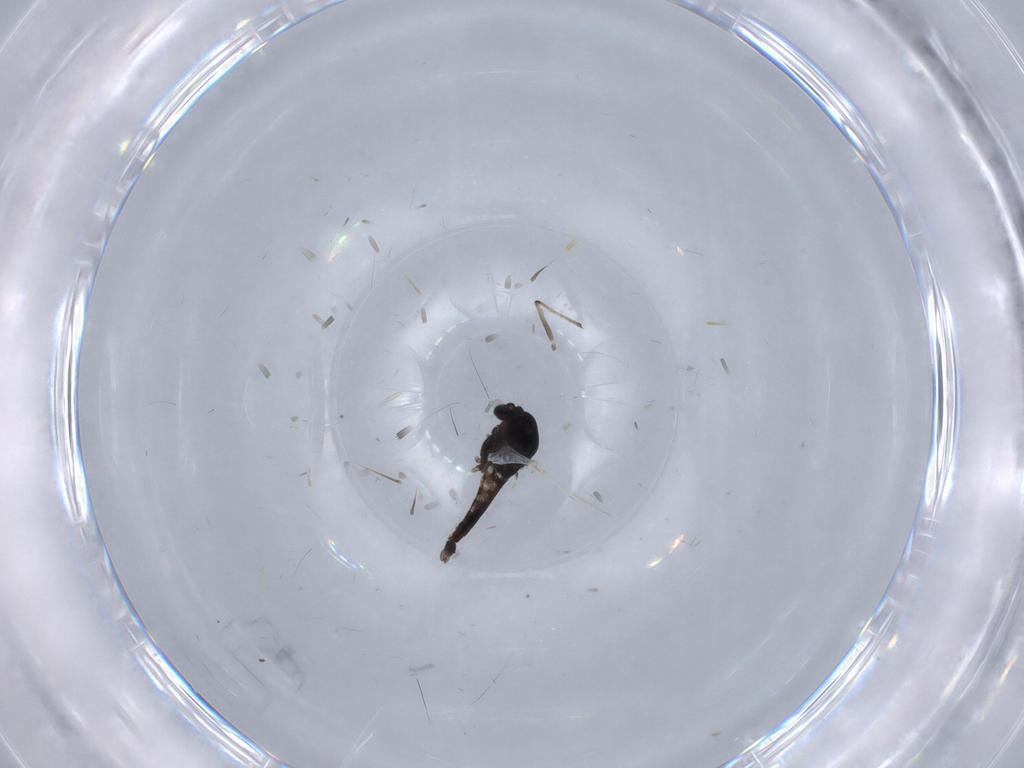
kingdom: Animalia
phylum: Arthropoda
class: Insecta
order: Diptera
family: Chironomidae
